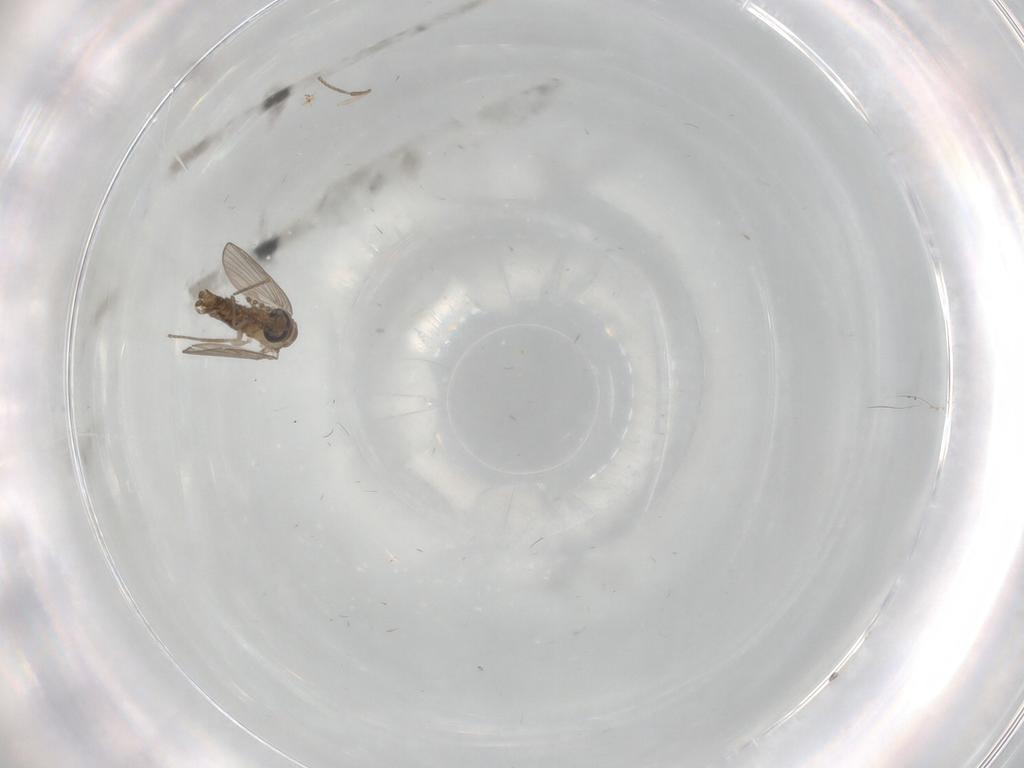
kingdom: Animalia
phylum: Arthropoda
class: Insecta
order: Diptera
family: Psychodidae
